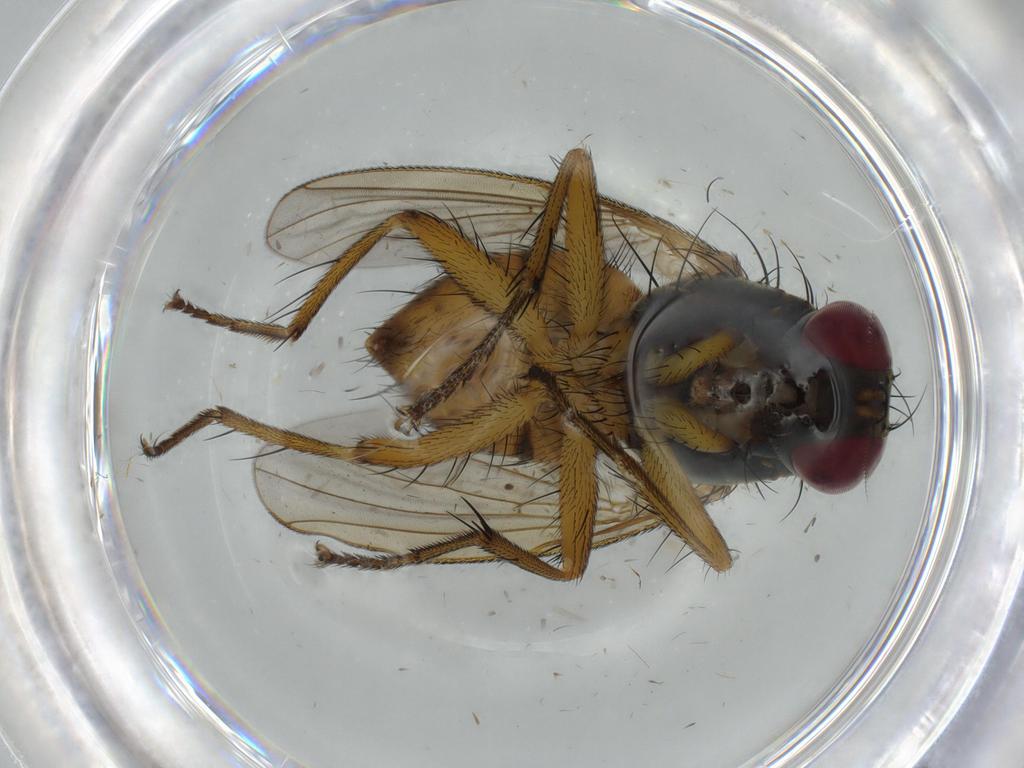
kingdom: Animalia
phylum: Arthropoda
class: Insecta
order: Diptera
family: Muscidae
